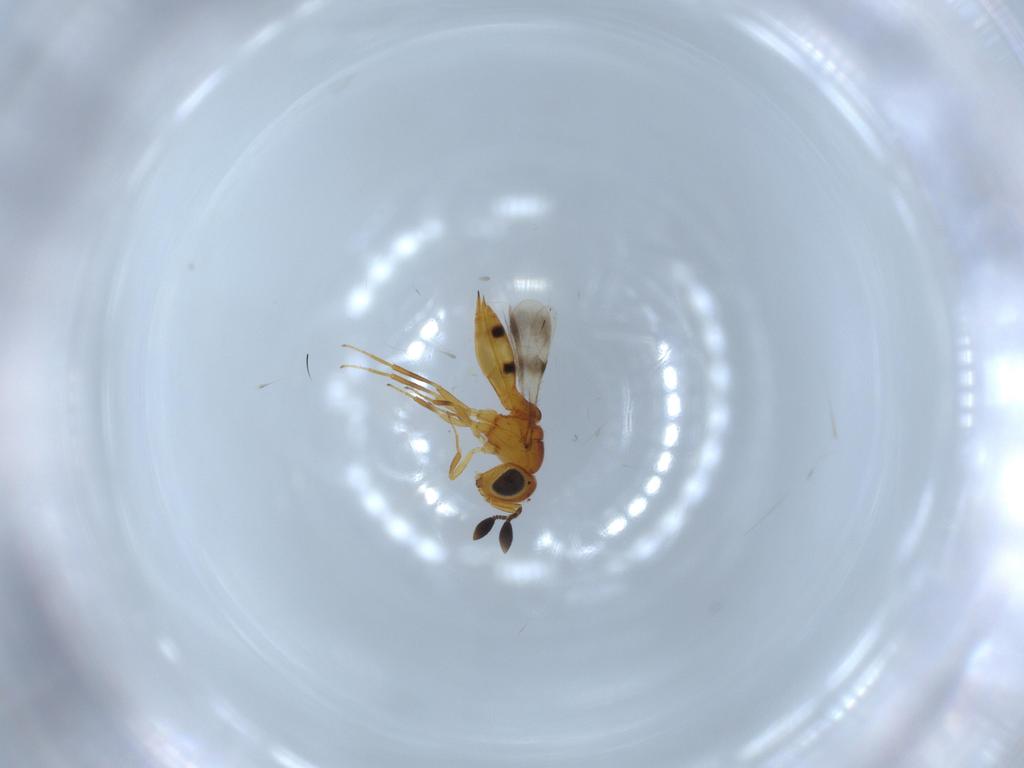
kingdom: Animalia
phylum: Arthropoda
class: Insecta
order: Hymenoptera
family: Scelionidae
